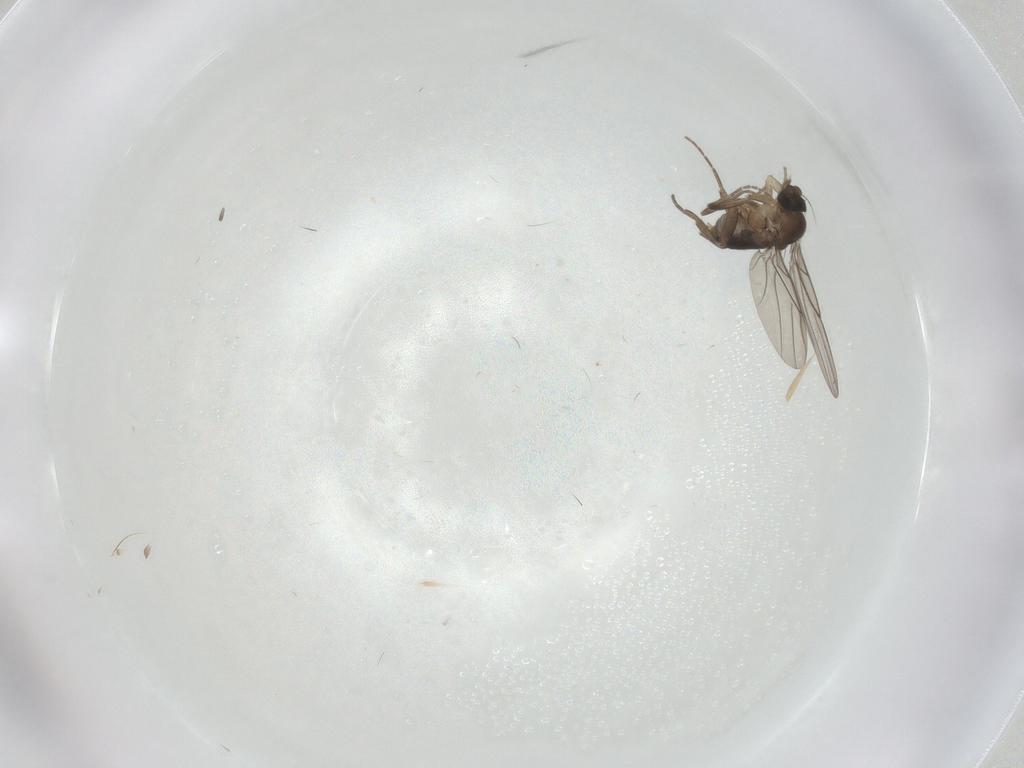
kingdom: Animalia
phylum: Arthropoda
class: Insecta
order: Diptera
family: Phoridae
